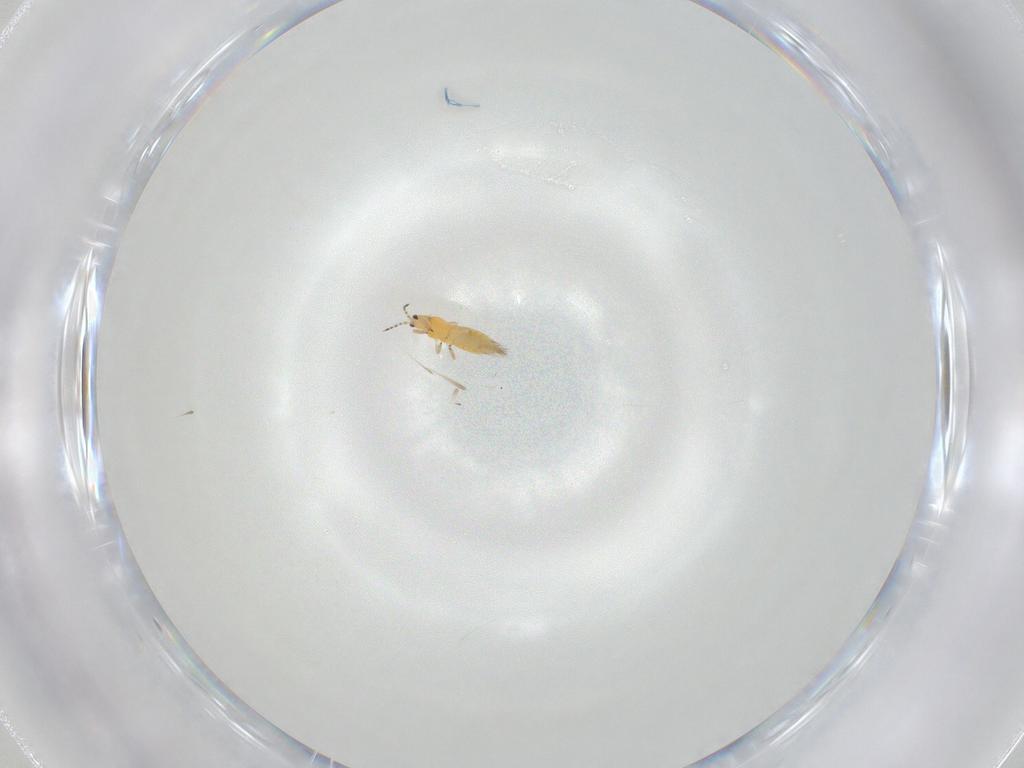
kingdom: Animalia
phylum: Arthropoda
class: Insecta
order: Thysanoptera
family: Thripidae
